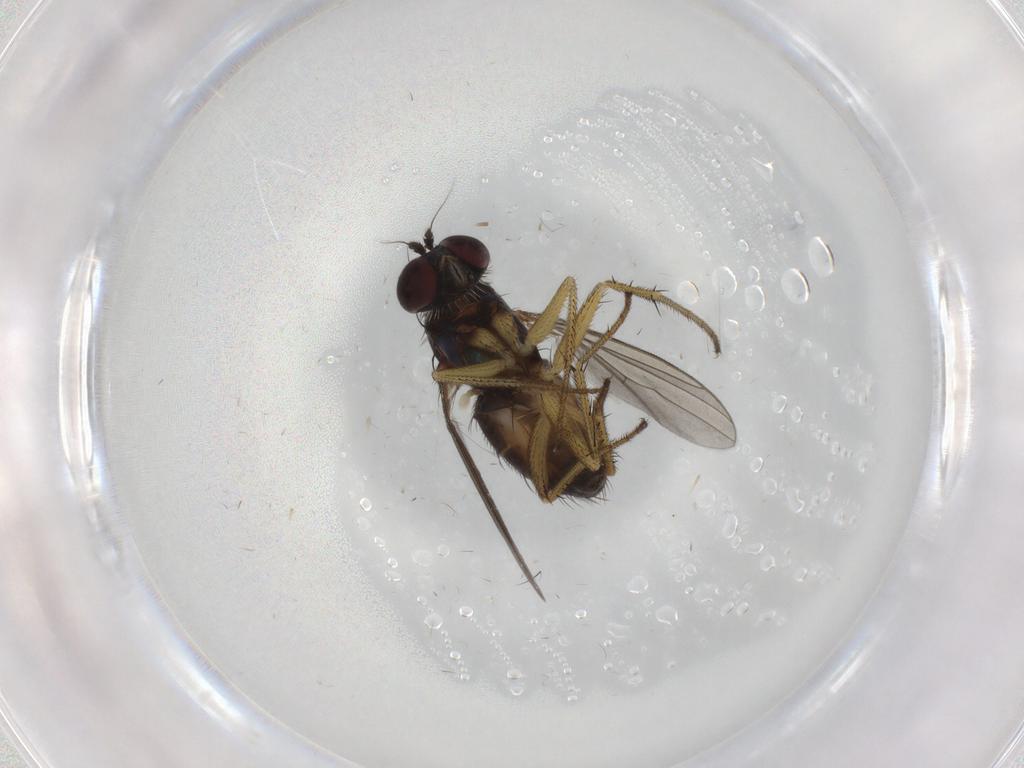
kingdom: Animalia
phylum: Arthropoda
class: Insecta
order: Diptera
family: Dolichopodidae
